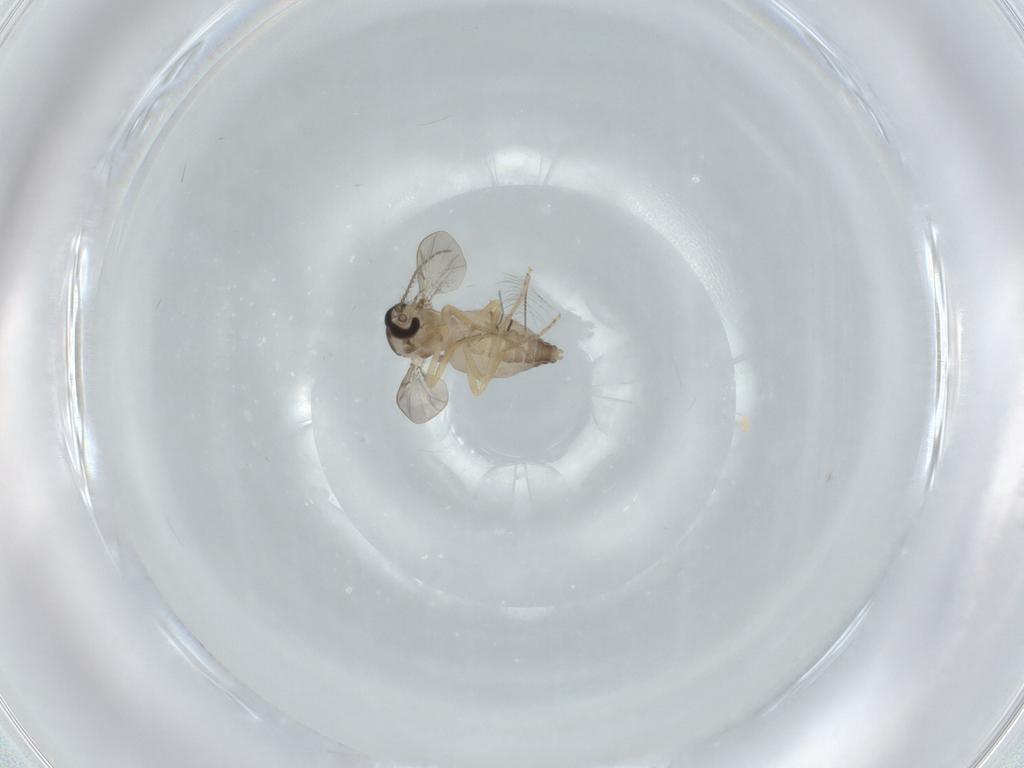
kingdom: Animalia
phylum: Arthropoda
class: Insecta
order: Diptera
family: Ceratopogonidae
